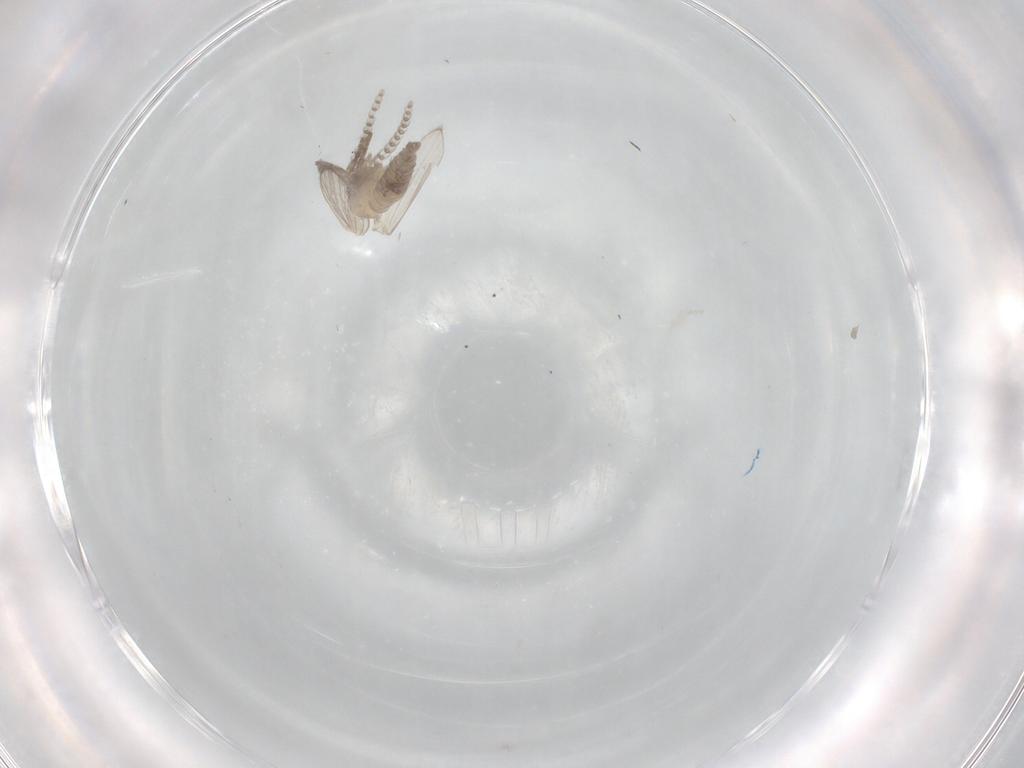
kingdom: Animalia
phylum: Arthropoda
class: Insecta
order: Diptera
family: Psychodidae
